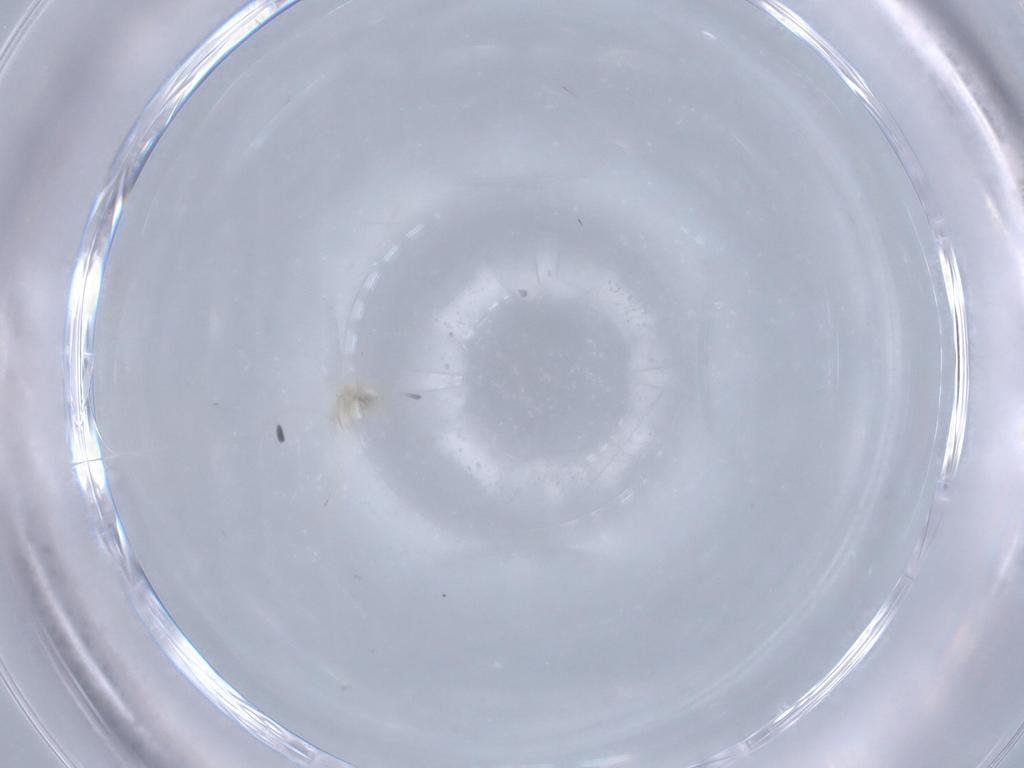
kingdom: Animalia
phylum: Arthropoda
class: Insecta
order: Diptera
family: Cecidomyiidae
